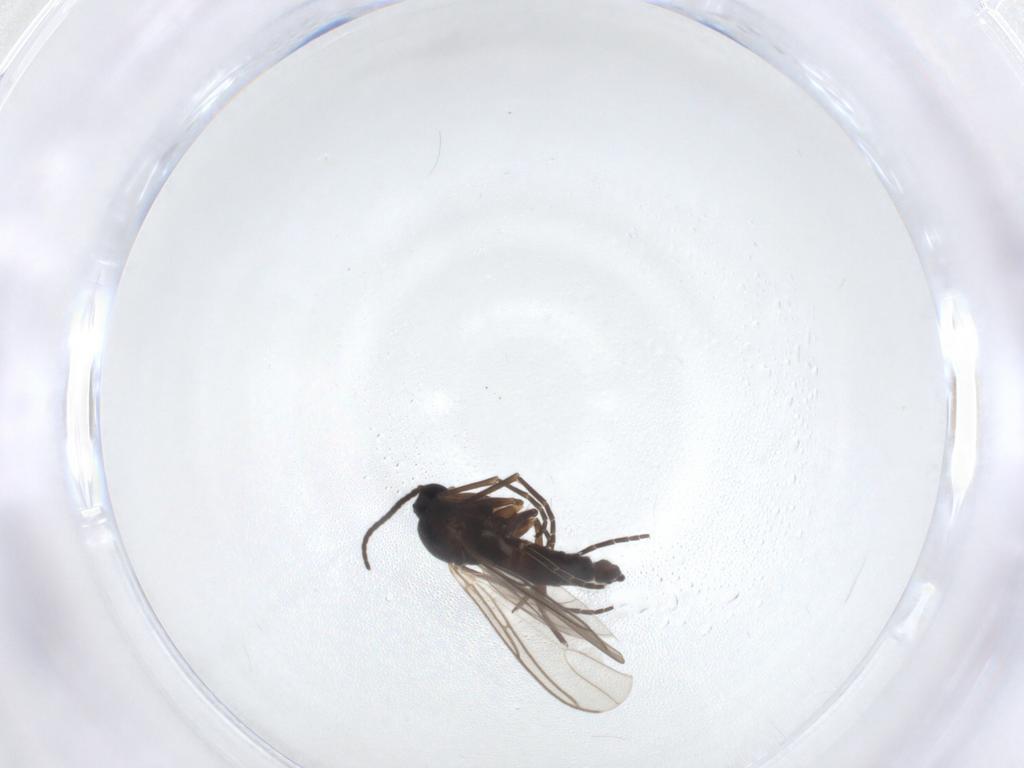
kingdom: Animalia
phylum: Arthropoda
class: Insecta
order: Diptera
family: Sciaridae
